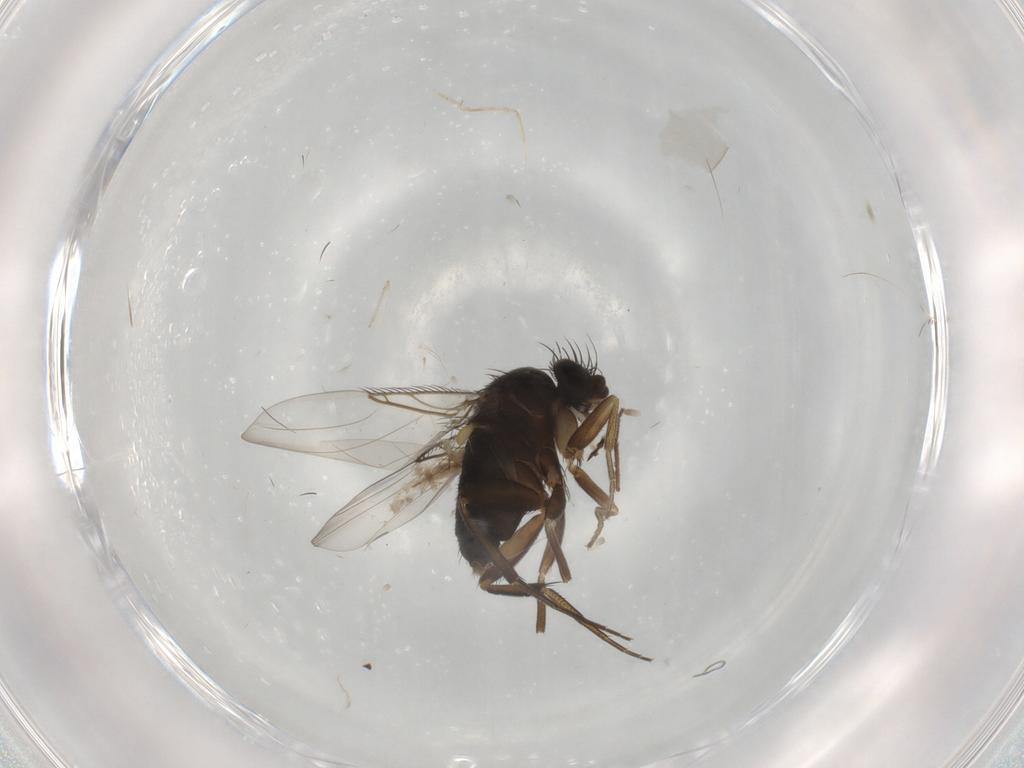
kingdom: Animalia
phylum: Arthropoda
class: Insecta
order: Diptera
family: Phoridae
